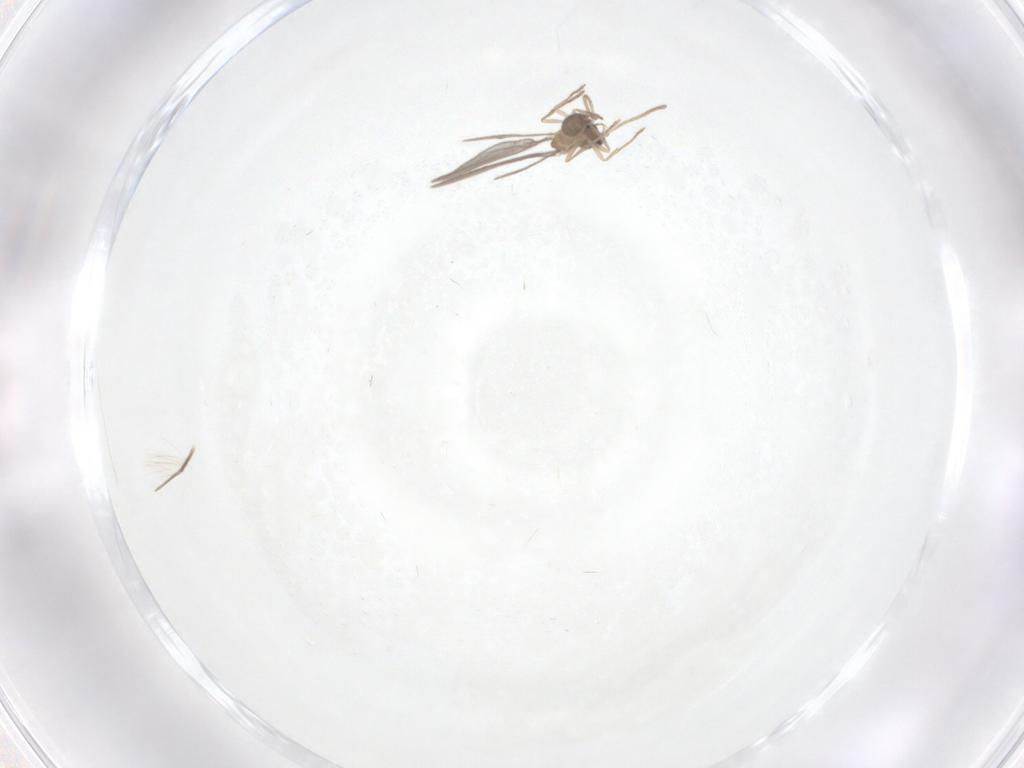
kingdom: Animalia
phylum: Arthropoda
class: Insecta
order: Hymenoptera
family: Formicidae
